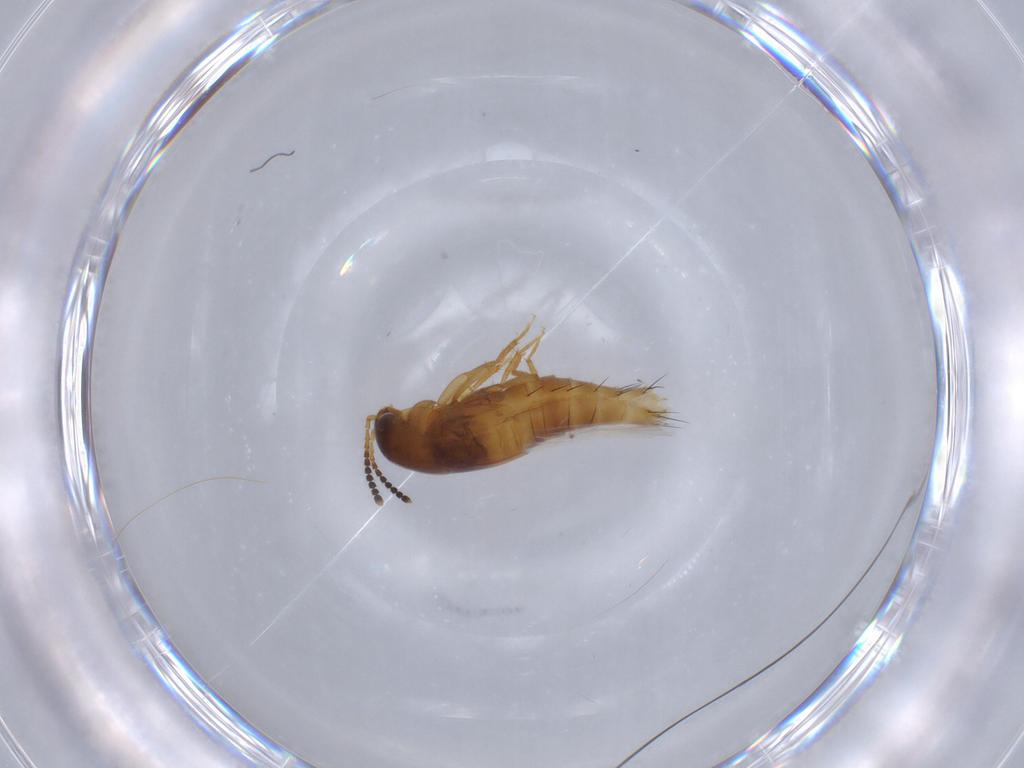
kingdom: Animalia
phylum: Arthropoda
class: Insecta
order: Coleoptera
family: Staphylinidae
